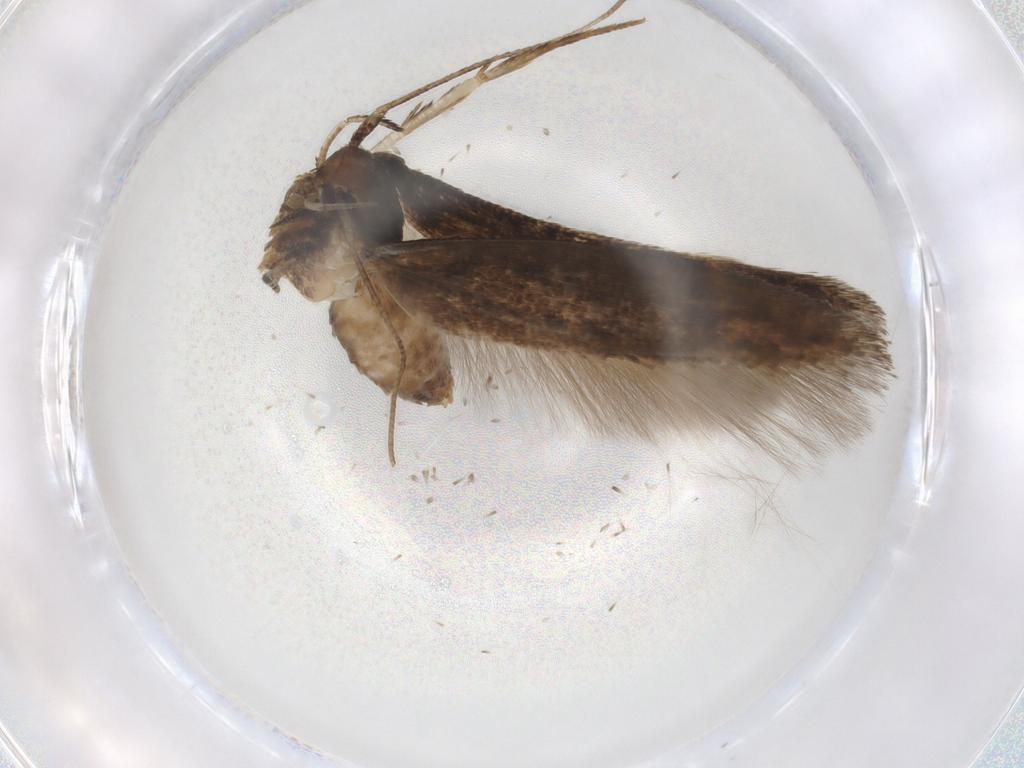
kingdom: Animalia
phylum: Arthropoda
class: Insecta
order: Lepidoptera
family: Cosmopterigidae
